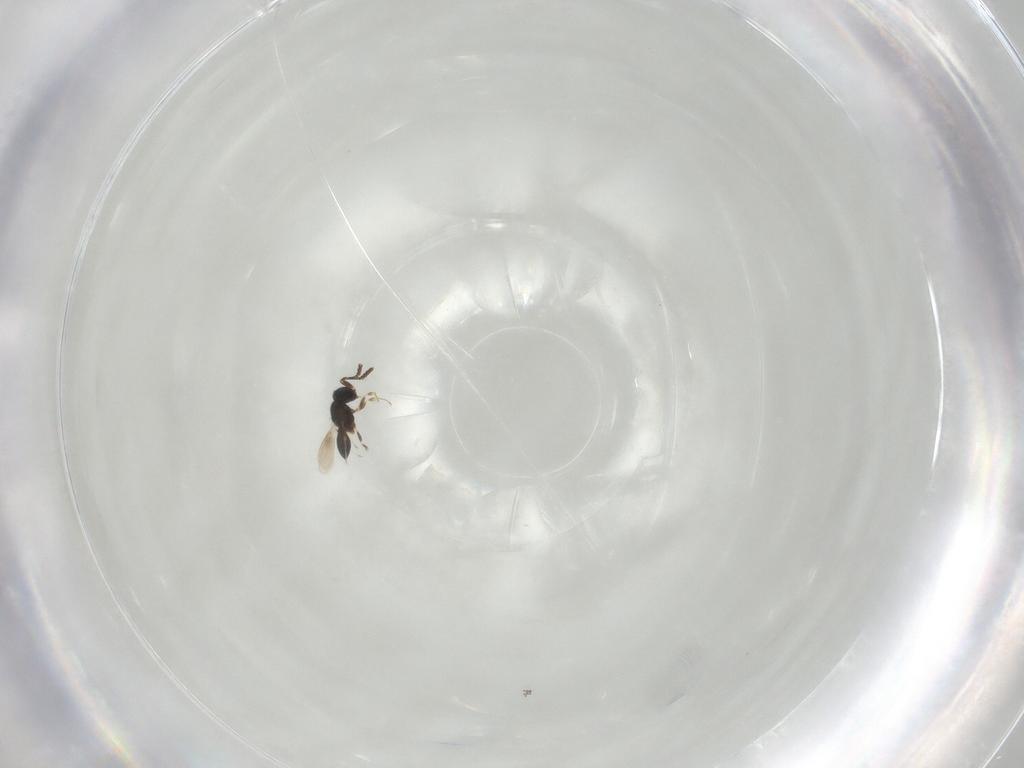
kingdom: Animalia
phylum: Arthropoda
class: Insecta
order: Hymenoptera
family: Scelionidae
